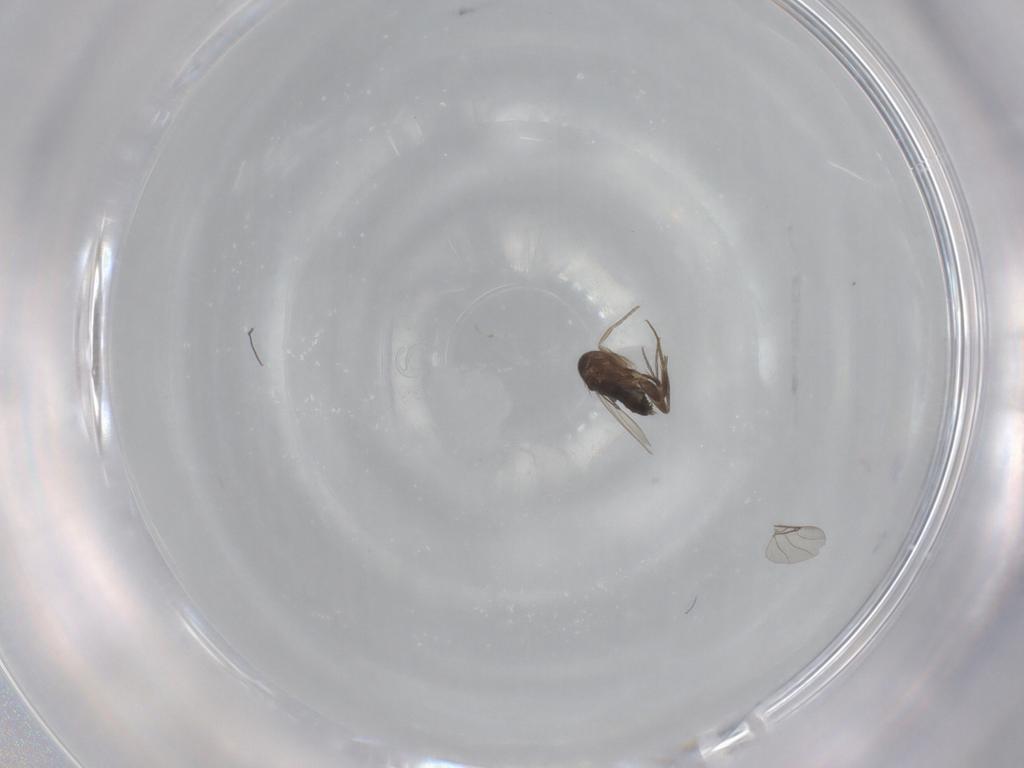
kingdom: Animalia
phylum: Arthropoda
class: Insecta
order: Diptera
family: Phoridae
